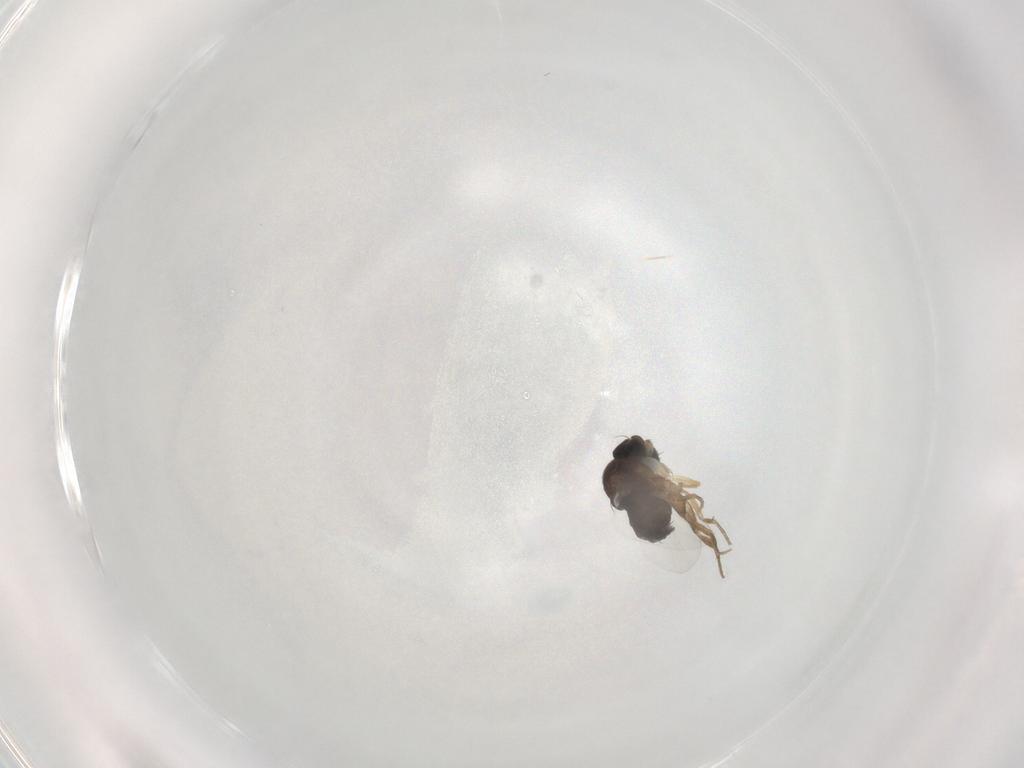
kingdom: Animalia
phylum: Arthropoda
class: Insecta
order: Diptera
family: Phoridae
